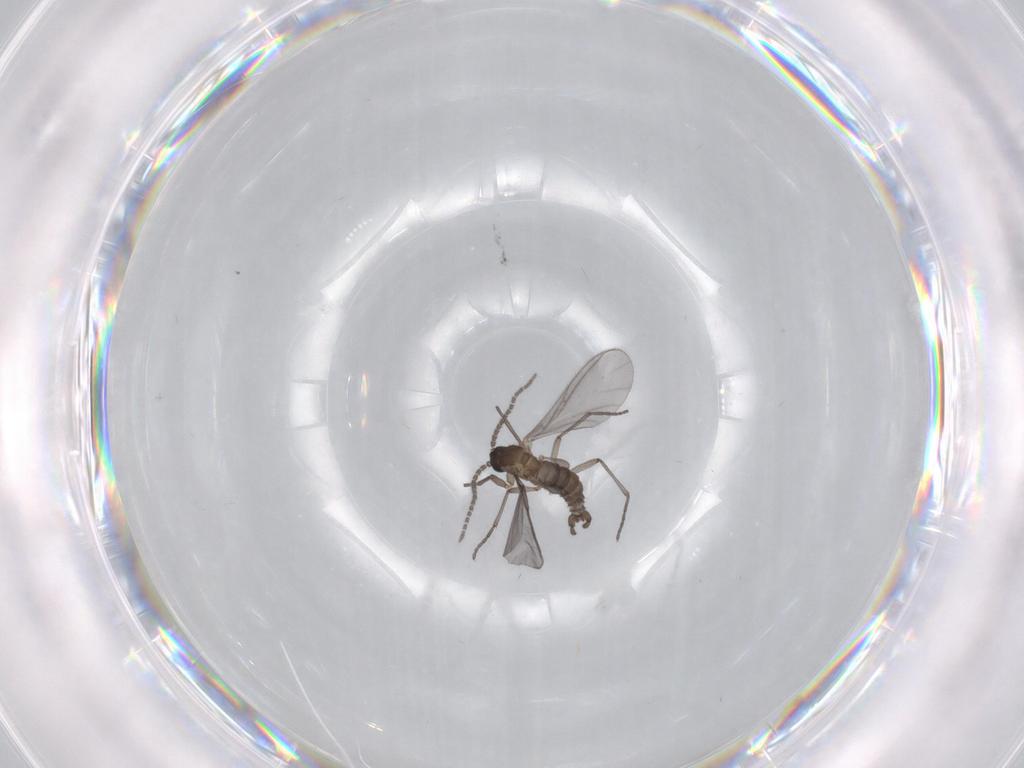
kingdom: Animalia
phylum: Arthropoda
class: Insecta
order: Diptera
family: Sciaridae
